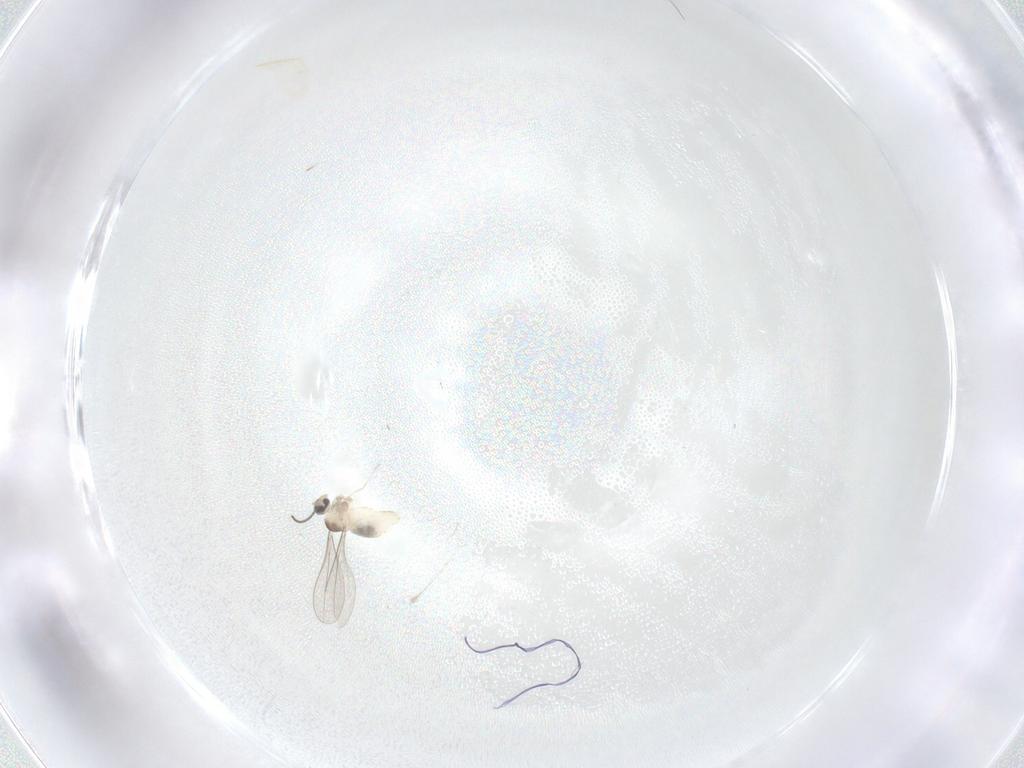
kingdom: Animalia
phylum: Arthropoda
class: Insecta
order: Diptera
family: Cecidomyiidae
